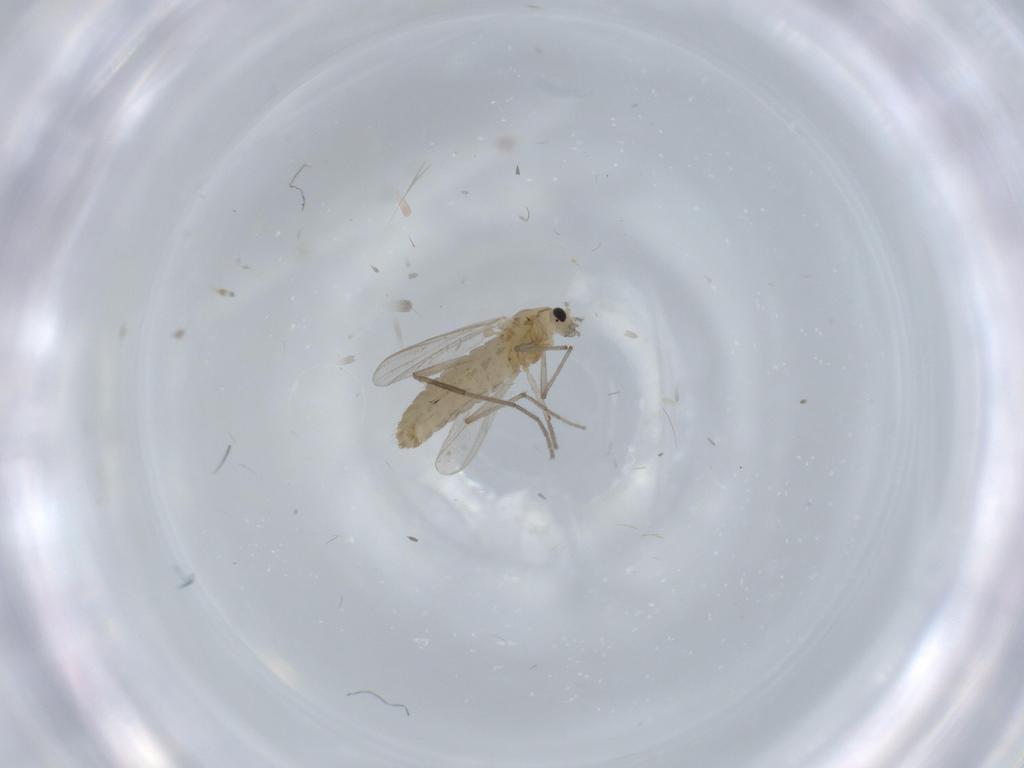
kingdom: Animalia
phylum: Arthropoda
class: Insecta
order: Diptera
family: Chironomidae
